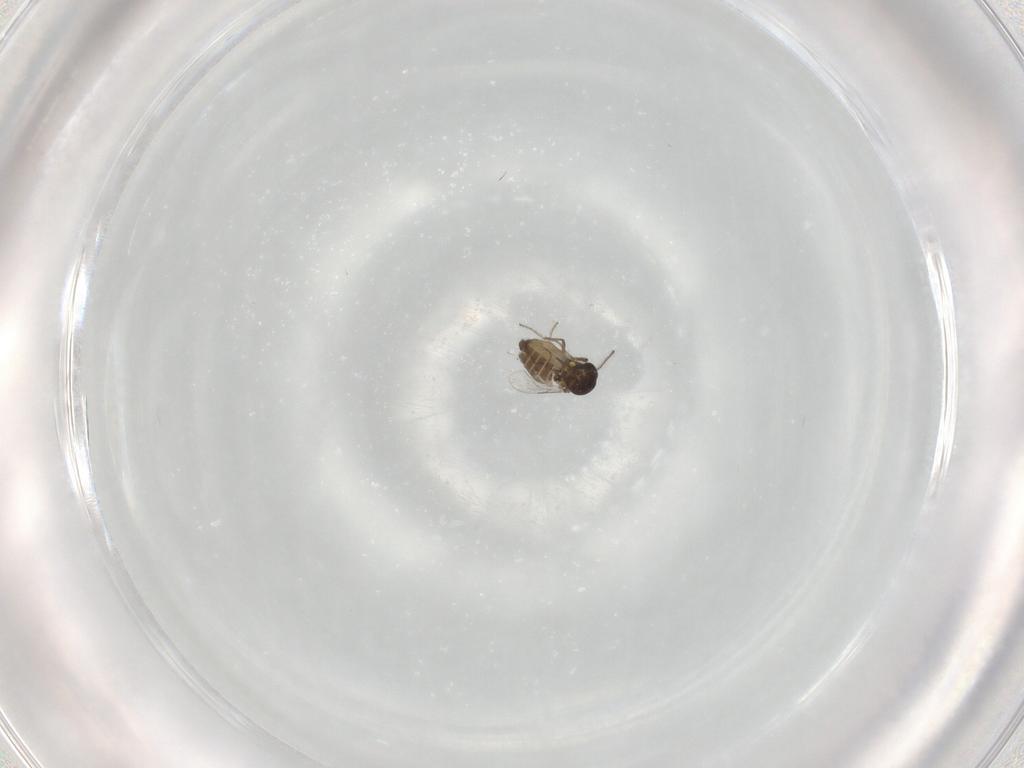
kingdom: Animalia
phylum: Arthropoda
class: Insecta
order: Diptera
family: Ceratopogonidae
